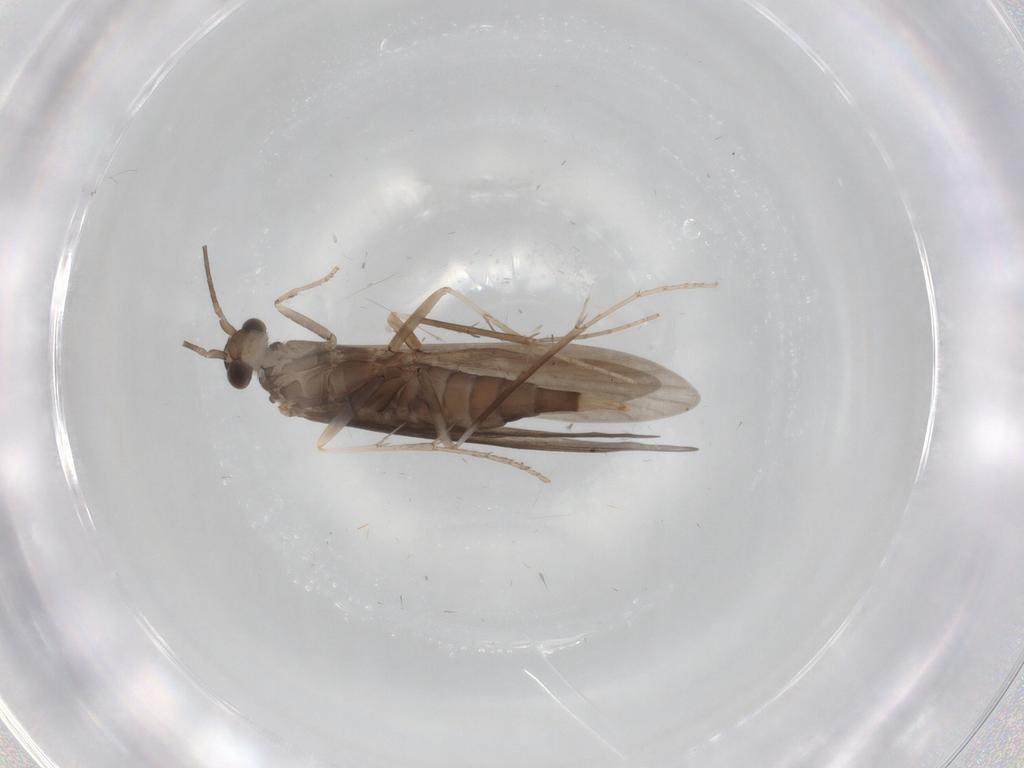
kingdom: Animalia
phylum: Arthropoda
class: Insecta
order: Trichoptera
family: Xiphocentronidae
